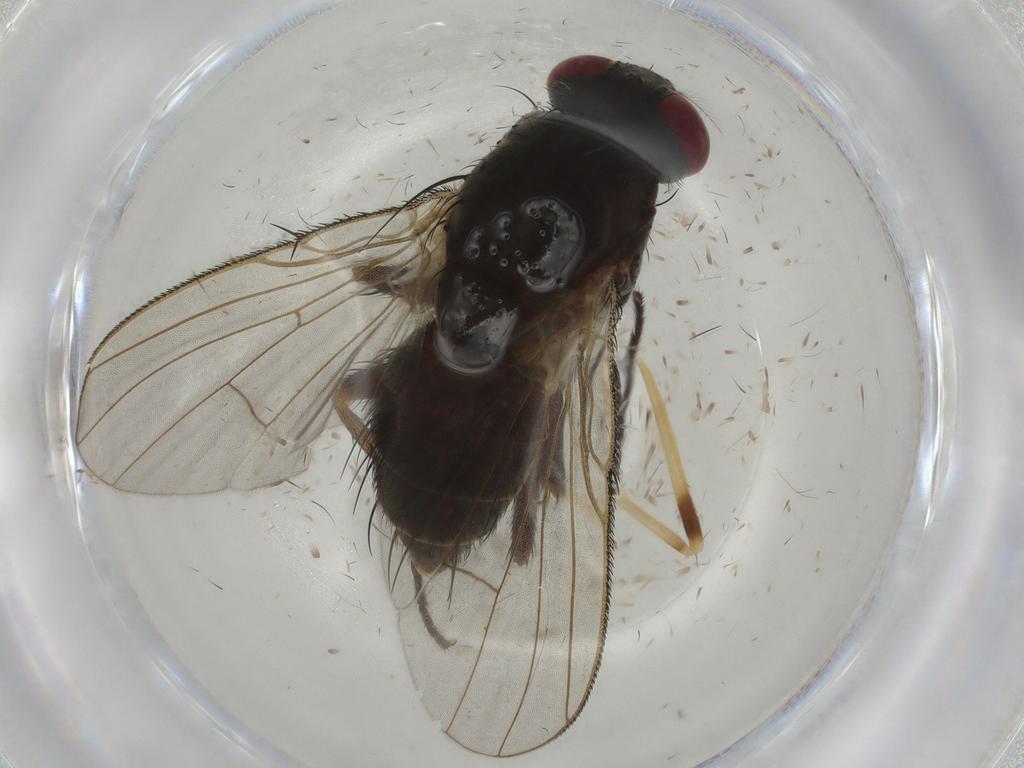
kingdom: Animalia
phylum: Arthropoda
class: Insecta
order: Diptera
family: Muscidae
